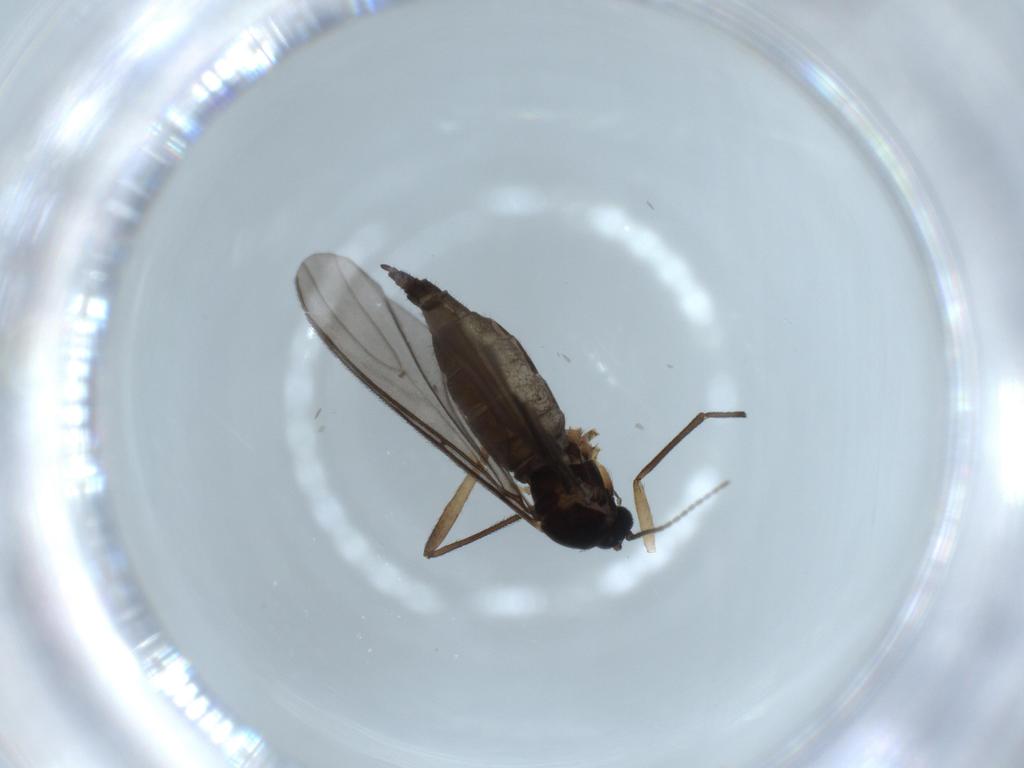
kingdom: Animalia
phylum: Arthropoda
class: Insecta
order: Diptera
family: Sciaridae
